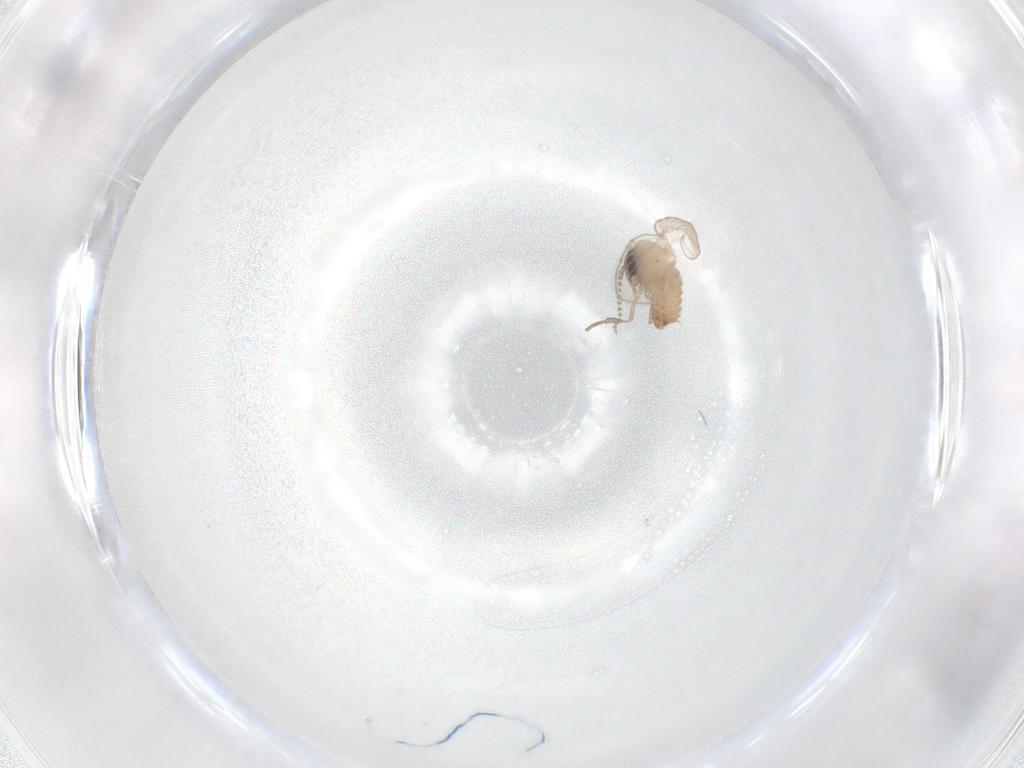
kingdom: Animalia
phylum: Arthropoda
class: Insecta
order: Diptera
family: Psychodidae
